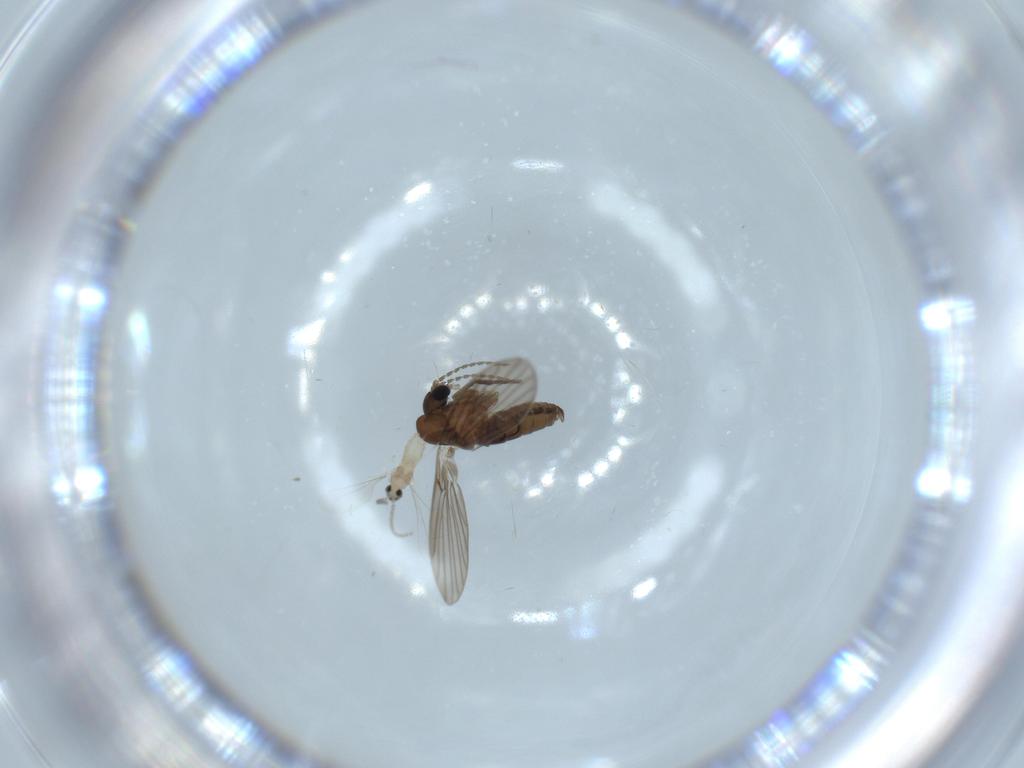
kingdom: Animalia
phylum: Arthropoda
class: Insecta
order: Diptera
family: Cecidomyiidae
